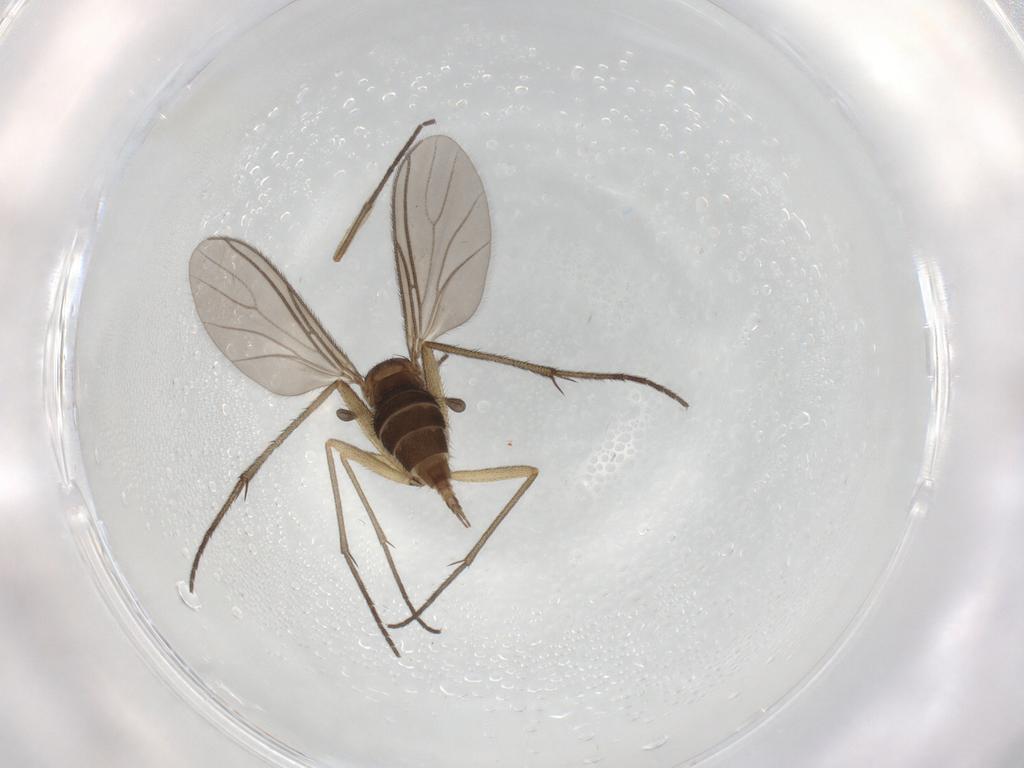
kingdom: Animalia
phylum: Arthropoda
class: Insecta
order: Diptera
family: Sciaridae
